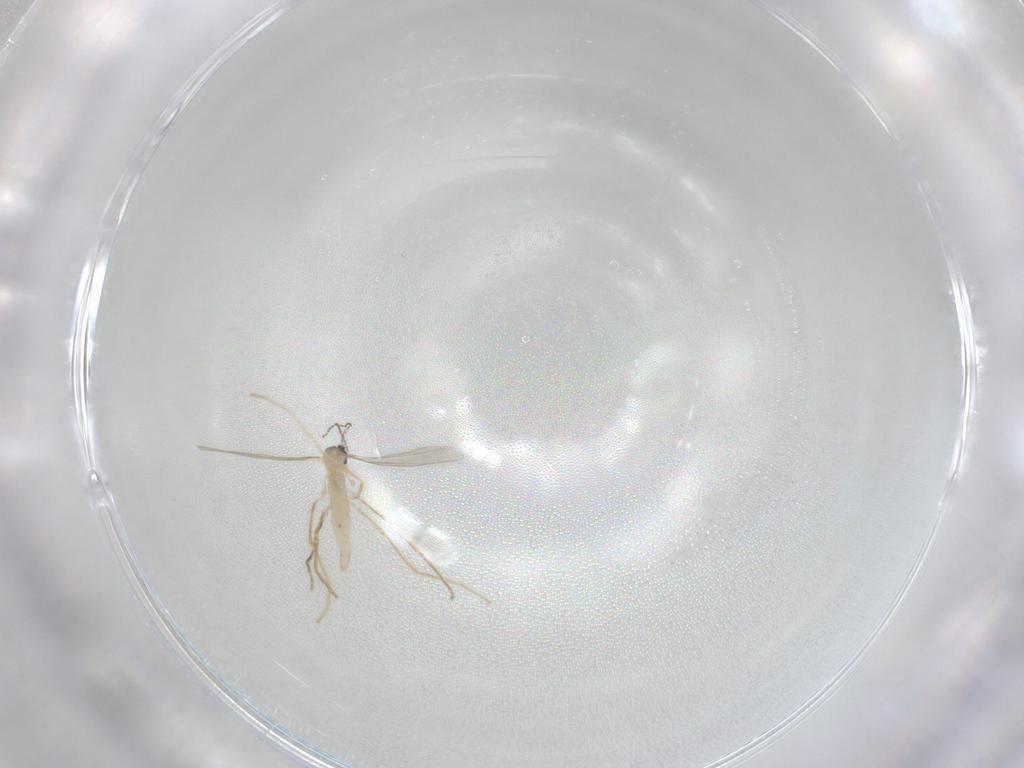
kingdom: Animalia
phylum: Arthropoda
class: Insecta
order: Diptera
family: Cecidomyiidae
